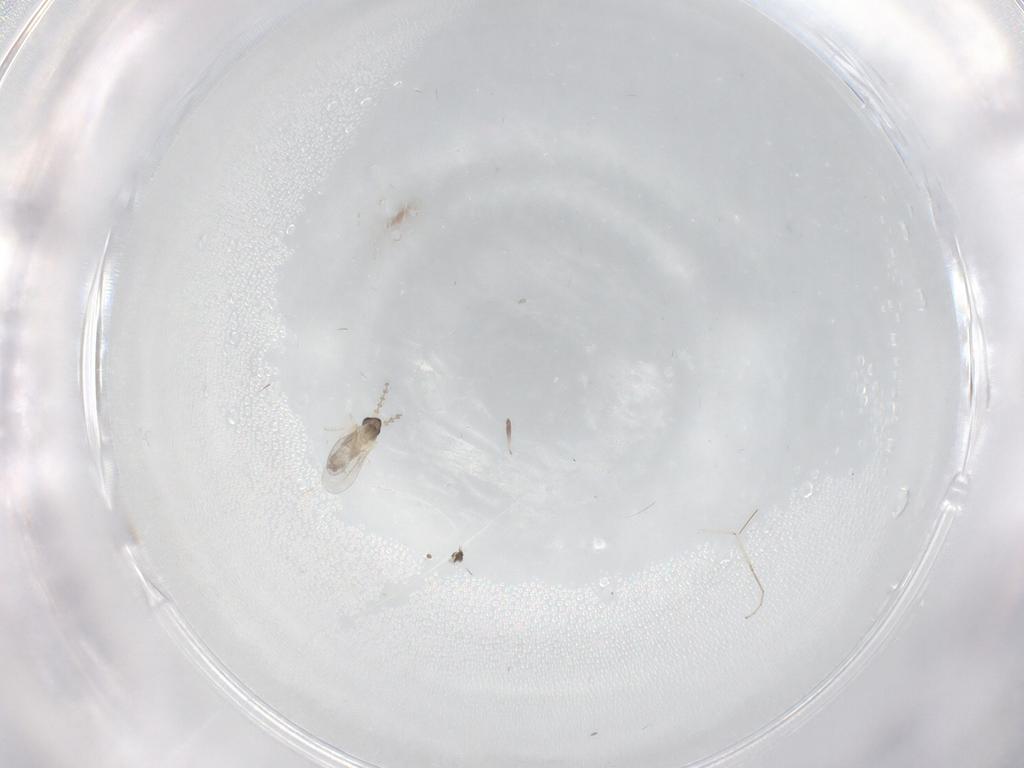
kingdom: Animalia
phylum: Arthropoda
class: Insecta
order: Diptera
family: Cecidomyiidae
